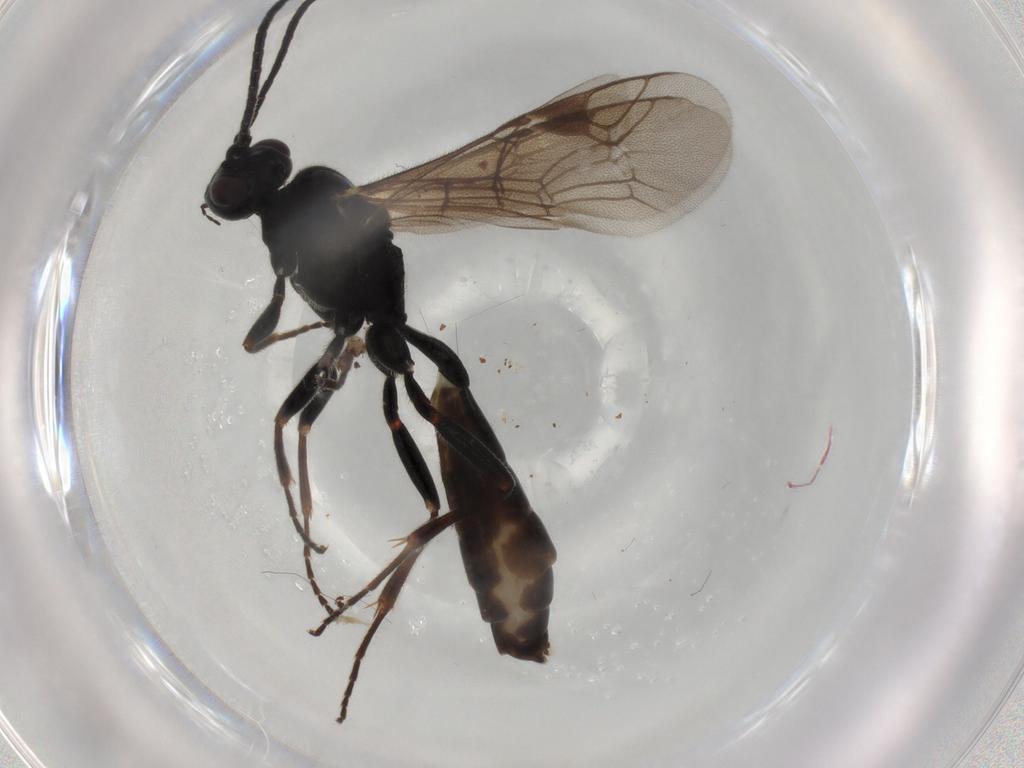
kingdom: Animalia
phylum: Arthropoda
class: Insecta
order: Hymenoptera
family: Ichneumonidae
